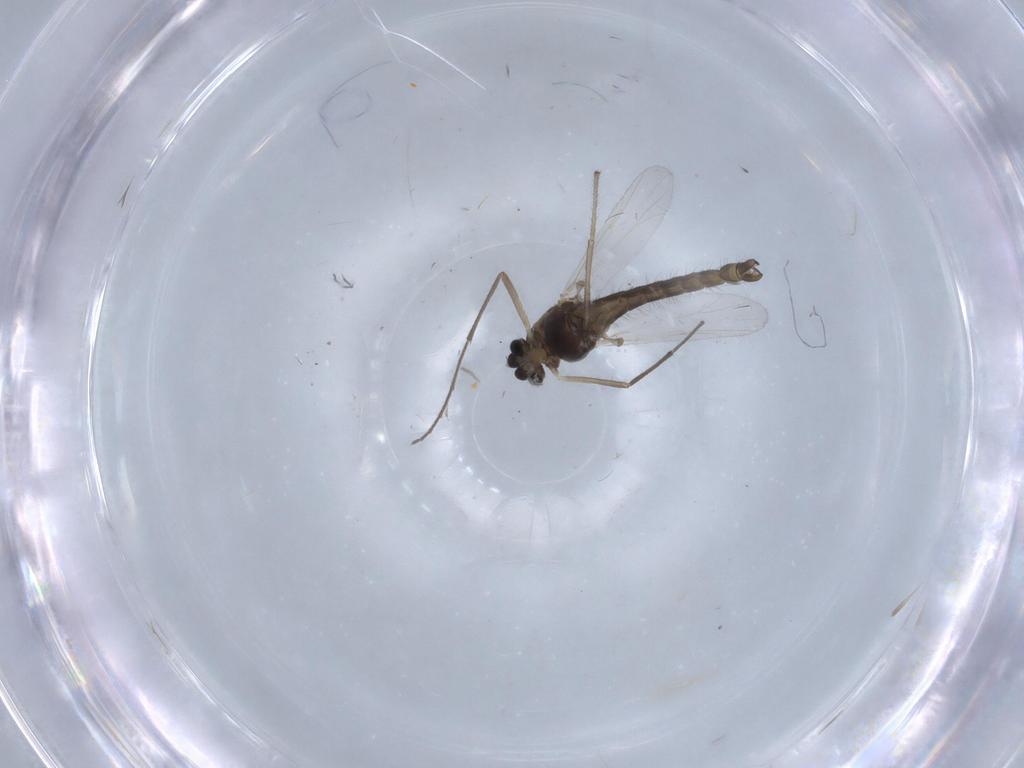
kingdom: Animalia
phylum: Arthropoda
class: Insecta
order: Diptera
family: Chironomidae
